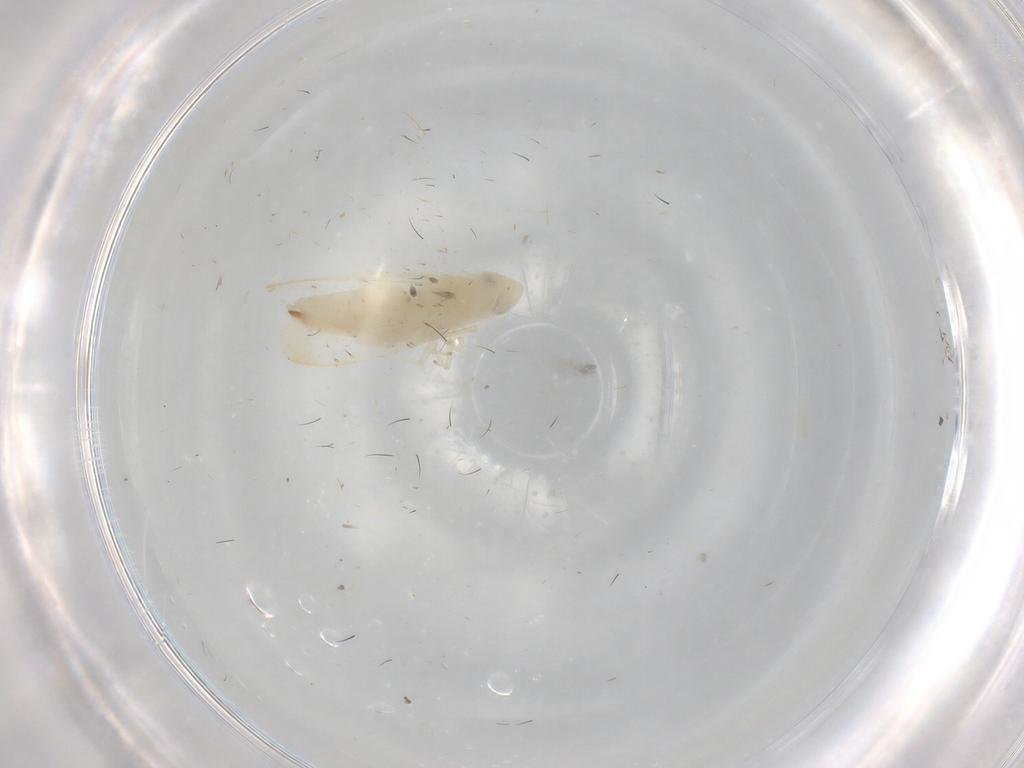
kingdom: Animalia
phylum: Arthropoda
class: Insecta
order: Hemiptera
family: Cicadellidae
